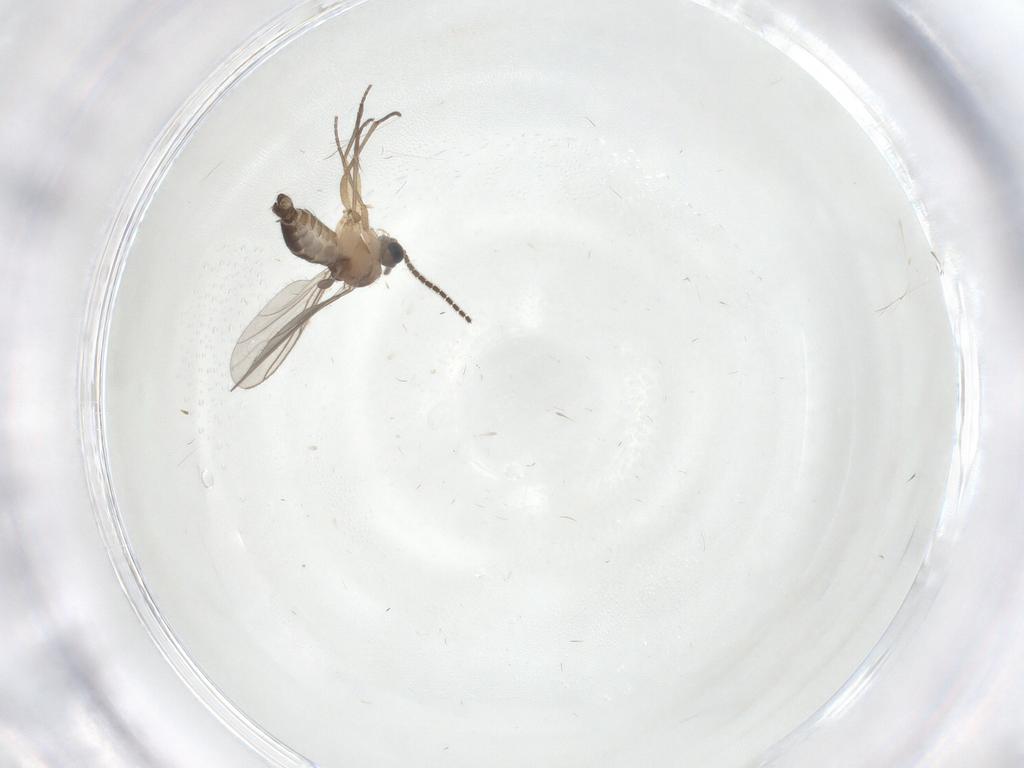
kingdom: Animalia
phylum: Arthropoda
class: Insecta
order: Diptera
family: Cecidomyiidae
